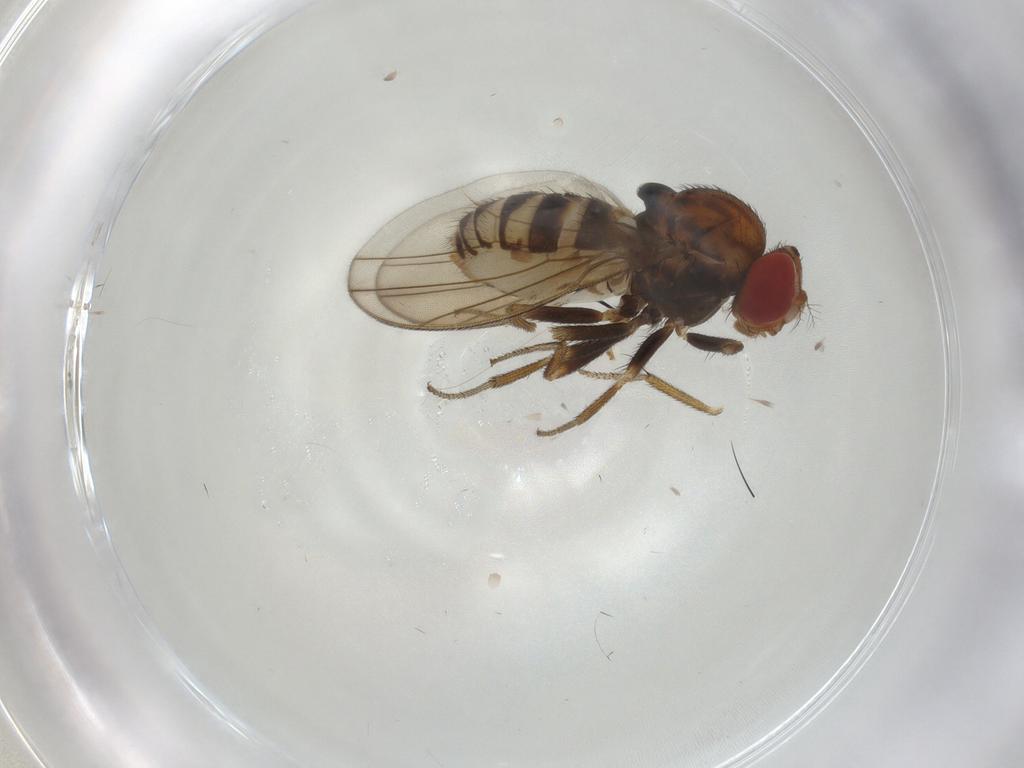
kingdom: Animalia
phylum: Arthropoda
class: Insecta
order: Diptera
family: Drosophilidae
